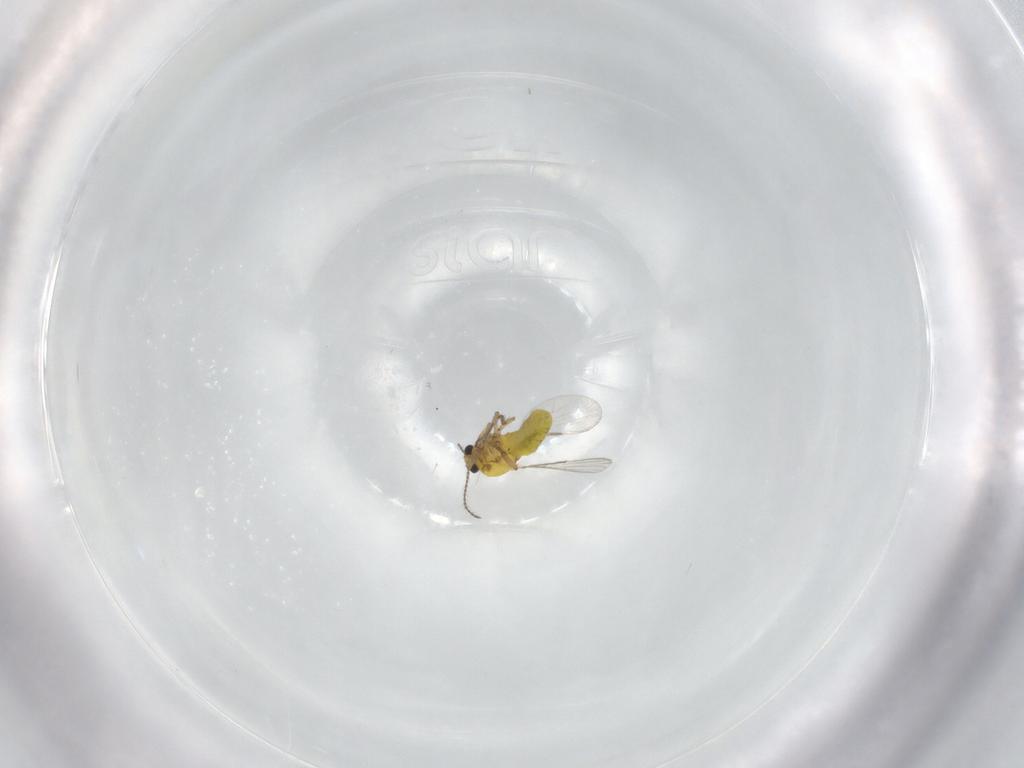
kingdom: Animalia
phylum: Arthropoda
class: Insecta
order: Diptera
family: Ceratopogonidae
